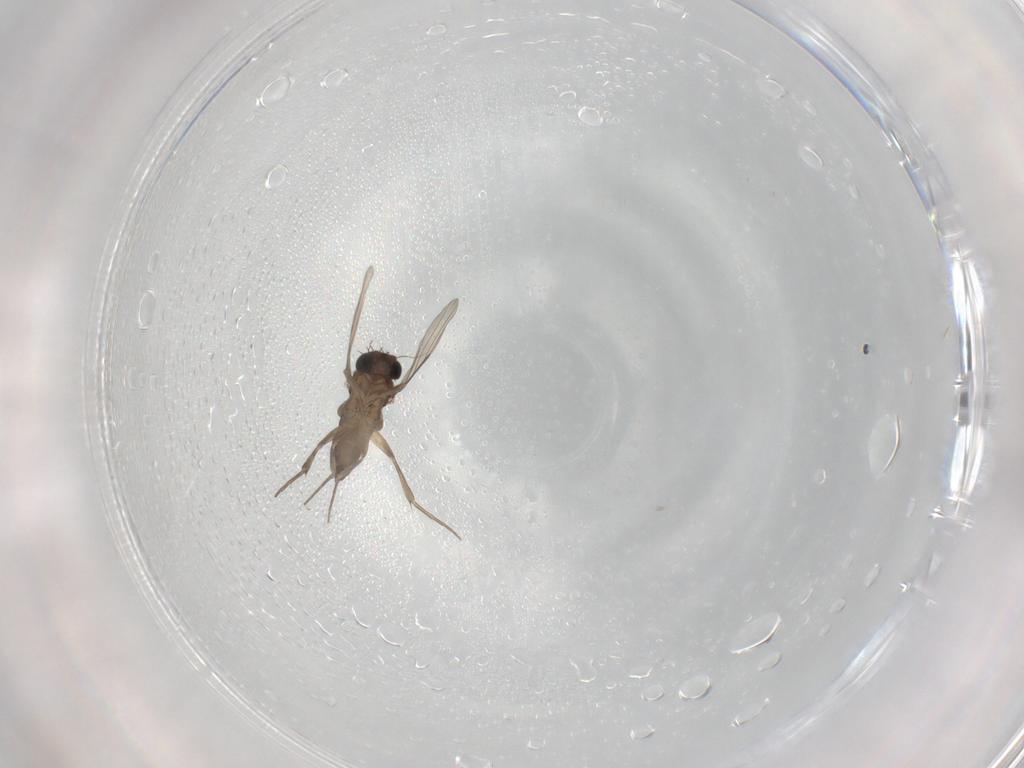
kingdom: Animalia
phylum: Arthropoda
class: Insecta
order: Diptera
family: Phoridae
